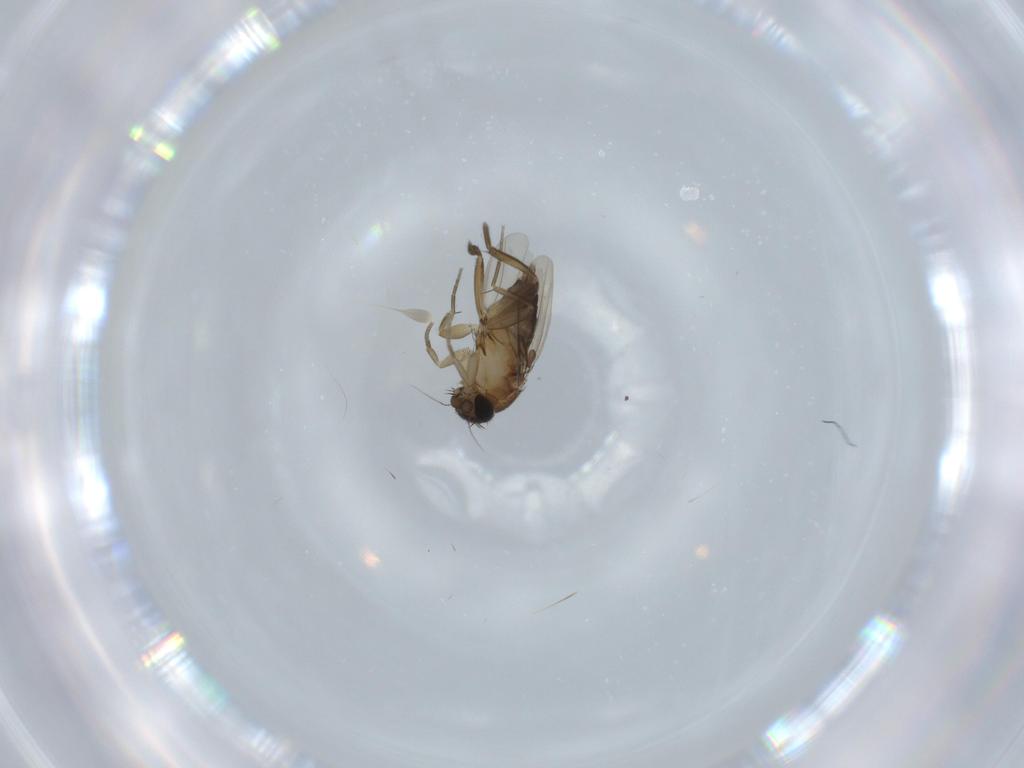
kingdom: Animalia
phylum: Arthropoda
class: Insecta
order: Diptera
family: Phoridae
